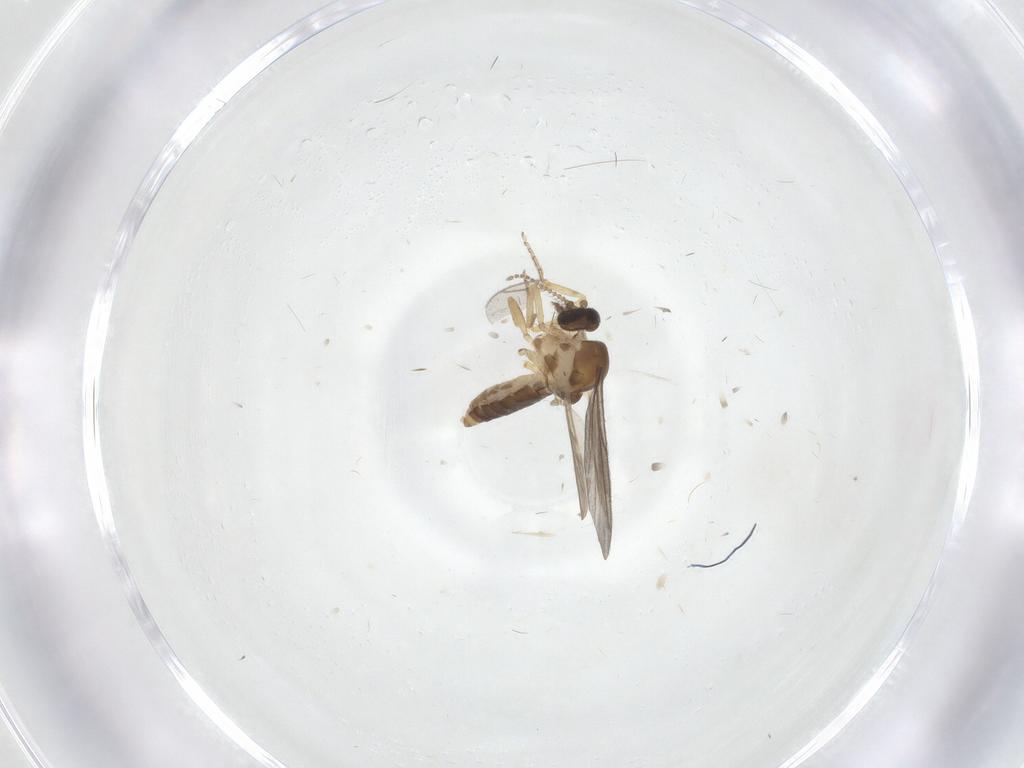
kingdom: Animalia
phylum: Arthropoda
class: Insecta
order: Diptera
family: Ceratopogonidae
